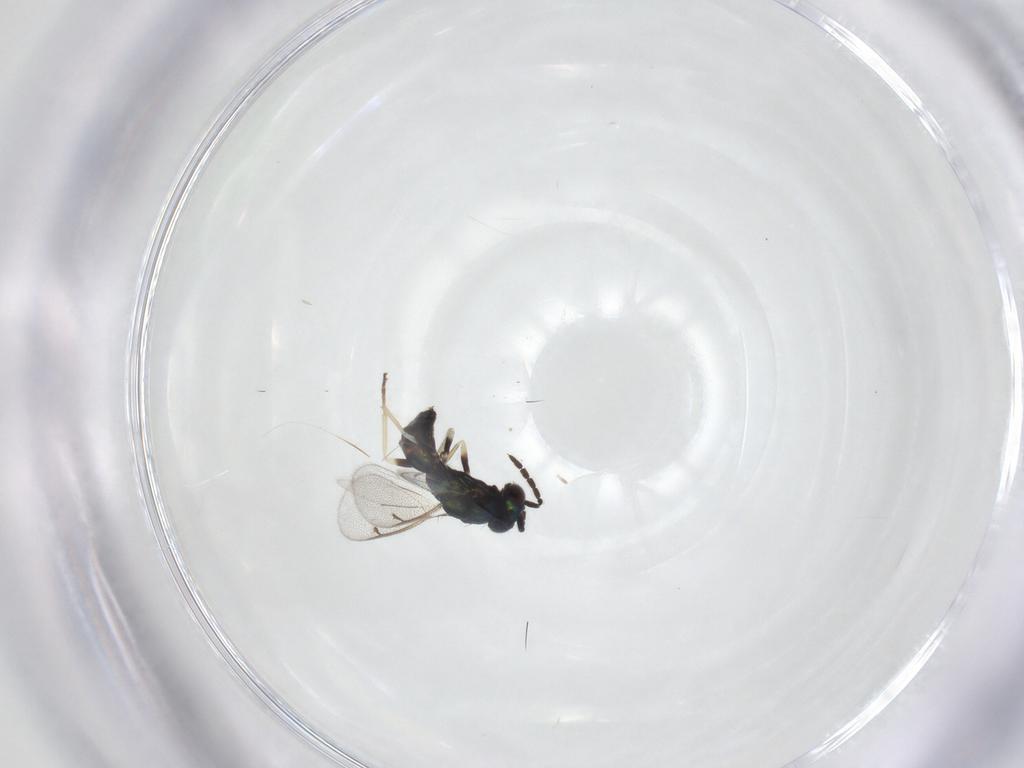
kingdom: Animalia
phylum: Arthropoda
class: Insecta
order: Hymenoptera
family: Eulophidae
